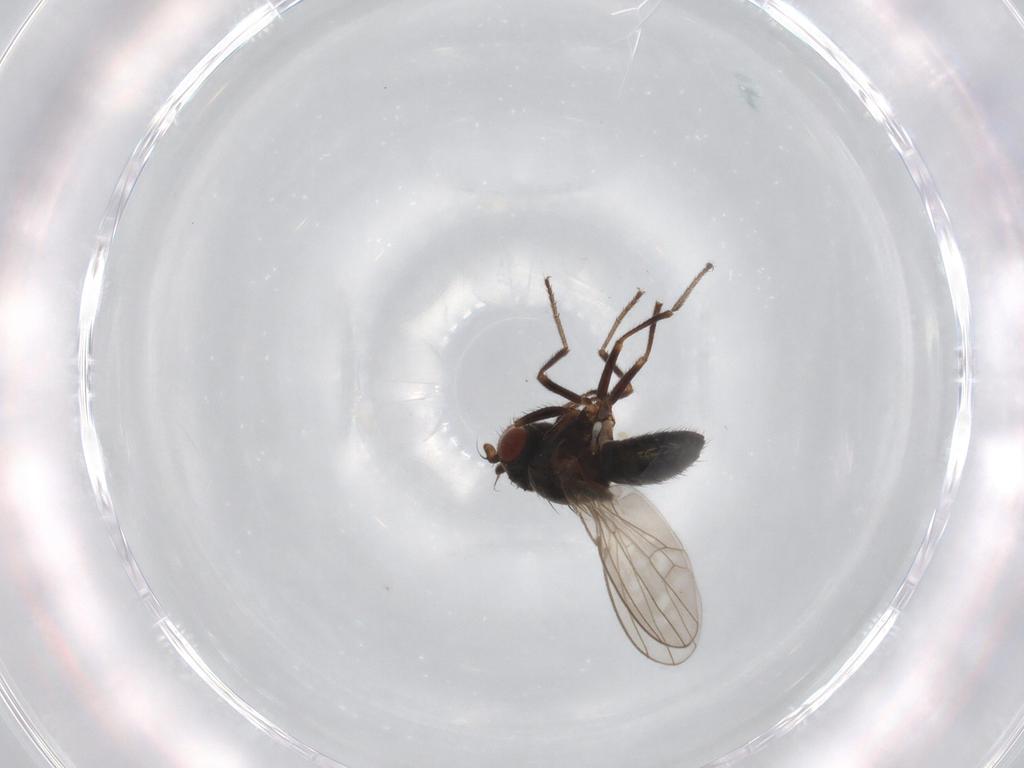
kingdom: Animalia
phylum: Arthropoda
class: Insecta
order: Diptera
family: Ephydridae
